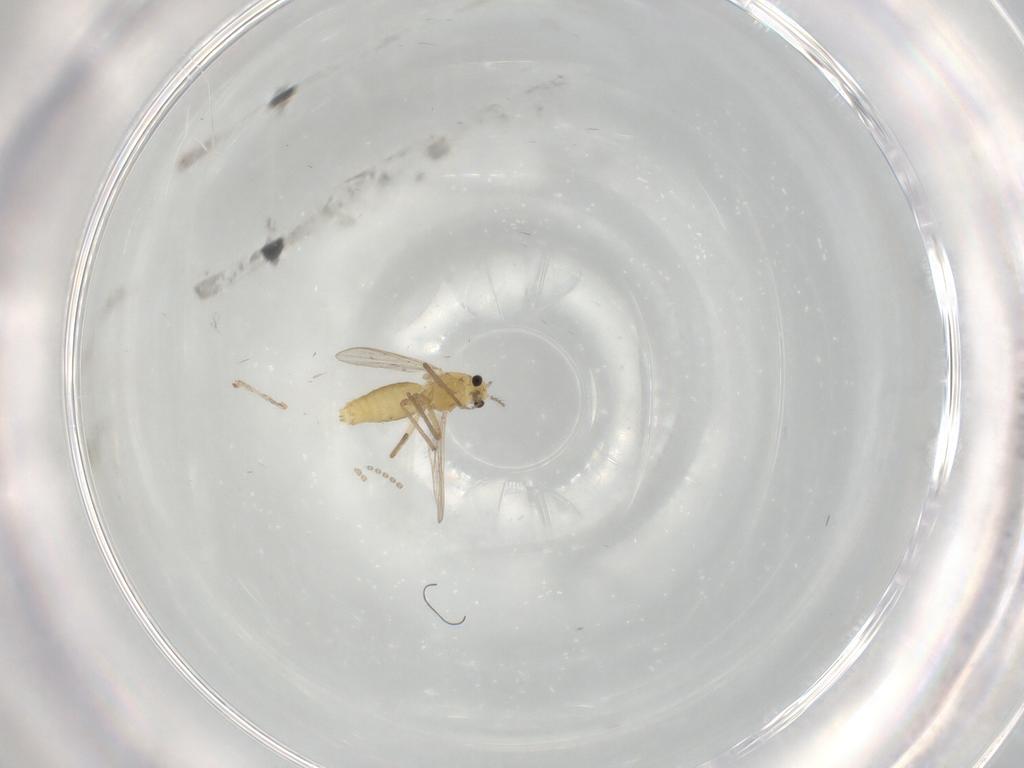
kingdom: Animalia
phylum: Arthropoda
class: Insecta
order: Diptera
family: Chironomidae
